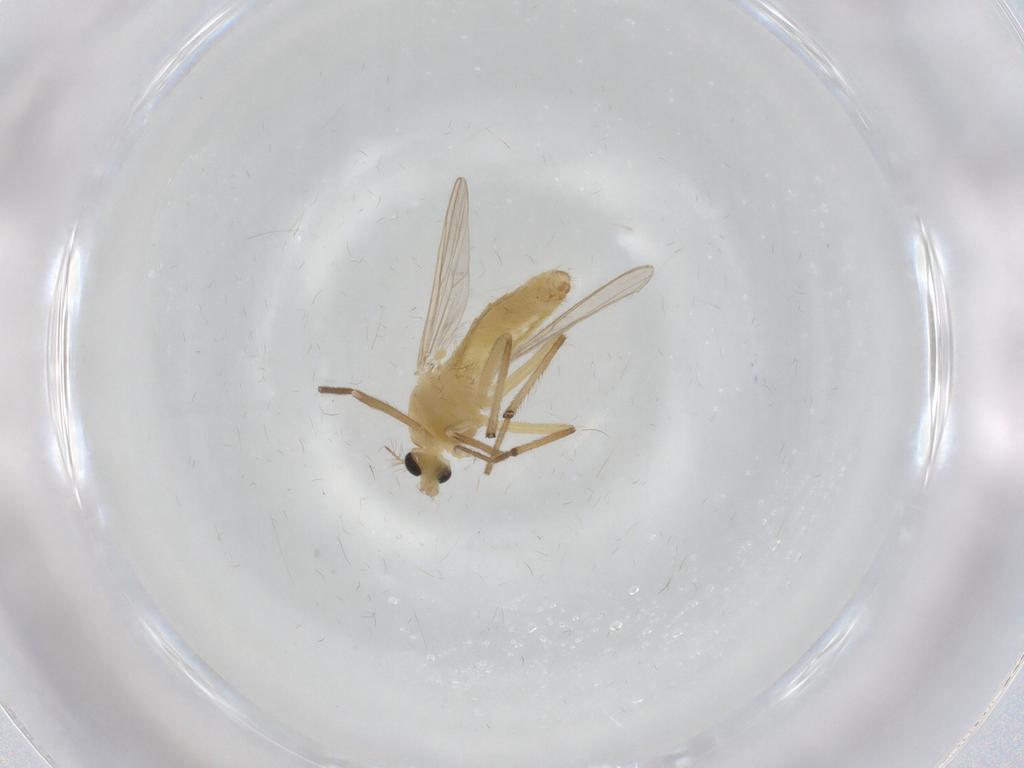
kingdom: Animalia
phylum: Arthropoda
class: Insecta
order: Diptera
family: Chironomidae
